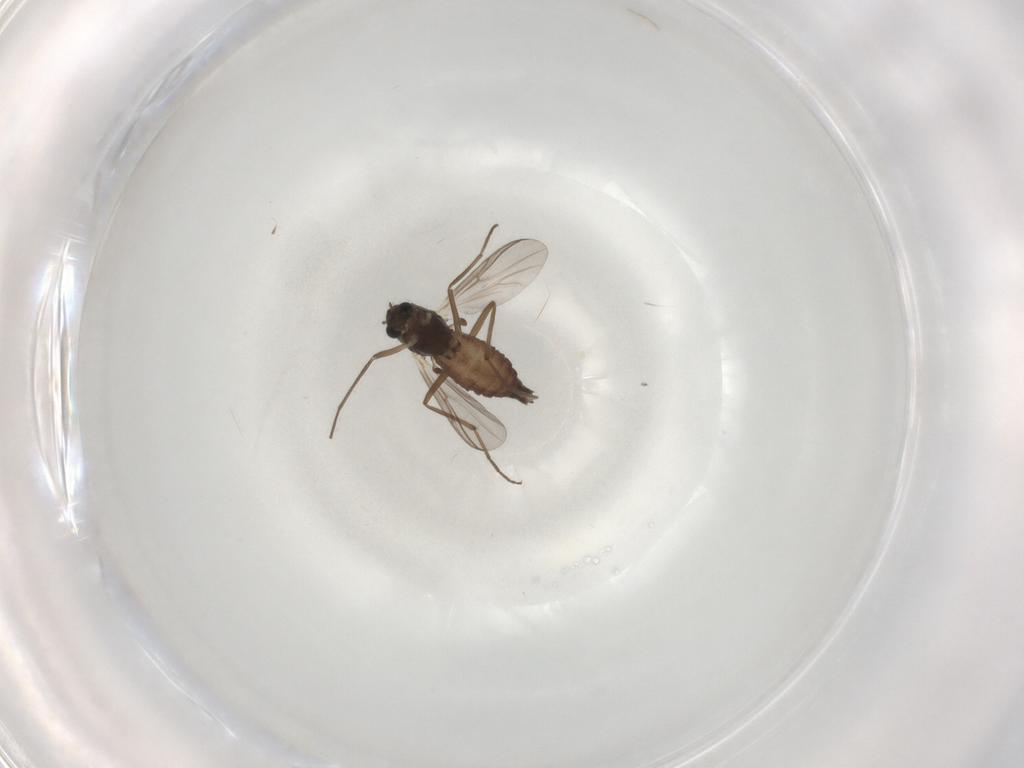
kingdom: Animalia
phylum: Arthropoda
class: Insecta
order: Diptera
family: Chironomidae
